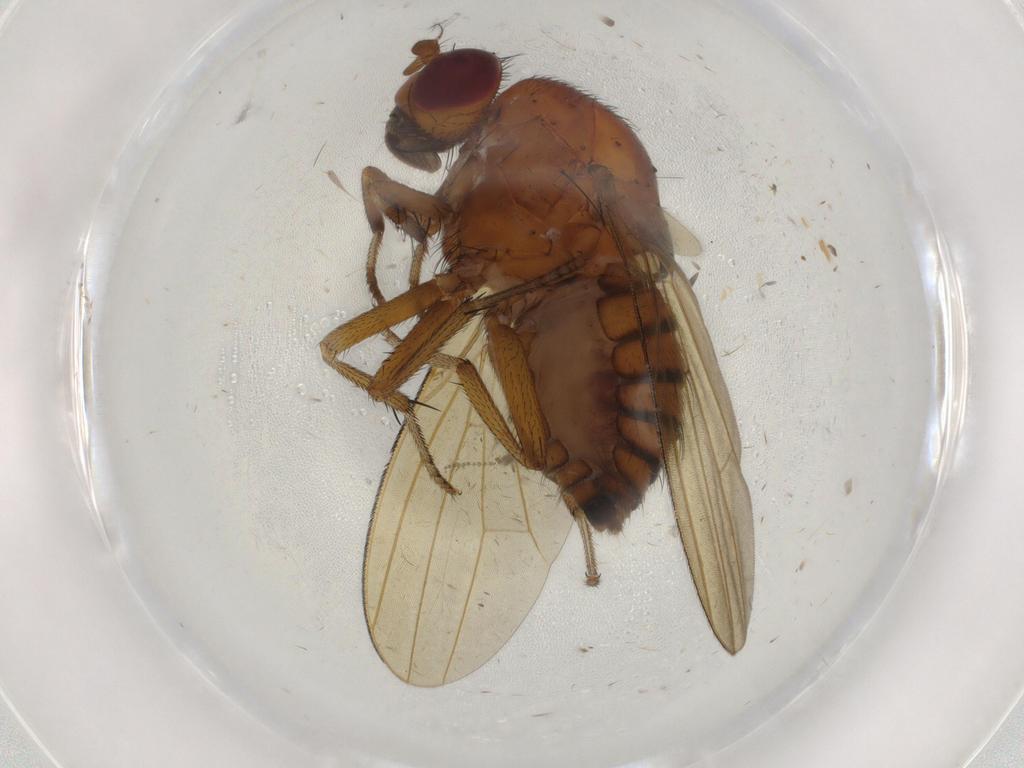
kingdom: Animalia
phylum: Arthropoda
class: Insecta
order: Diptera
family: Sciaridae
